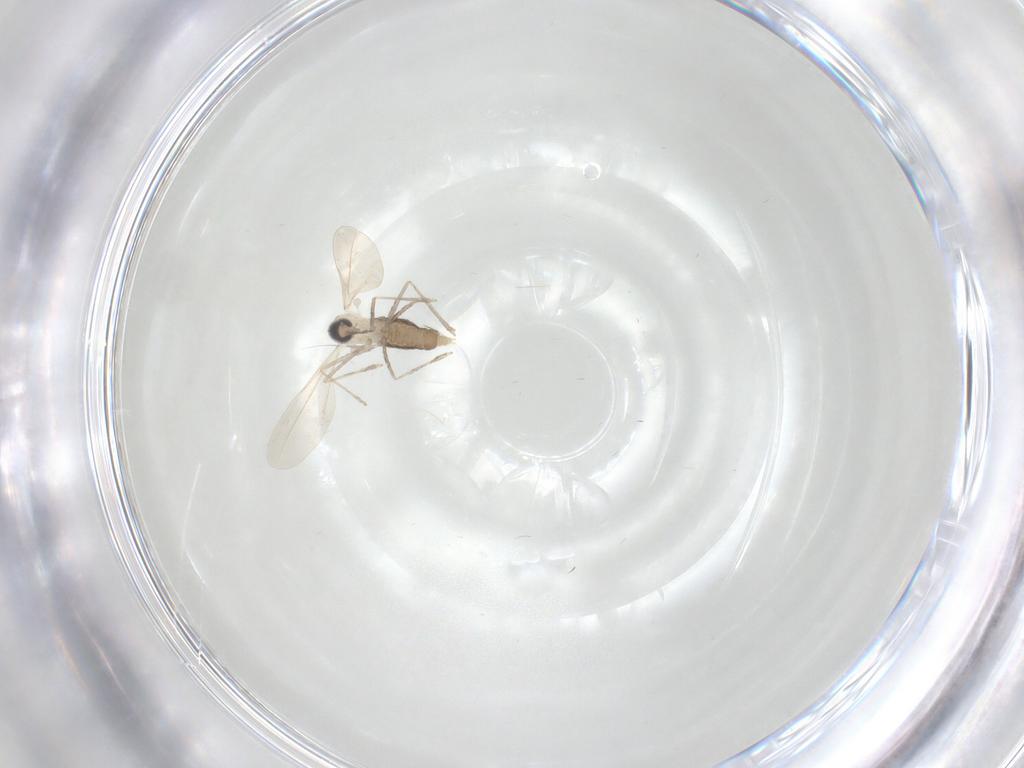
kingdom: Animalia
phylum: Arthropoda
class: Insecta
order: Diptera
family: Cecidomyiidae
